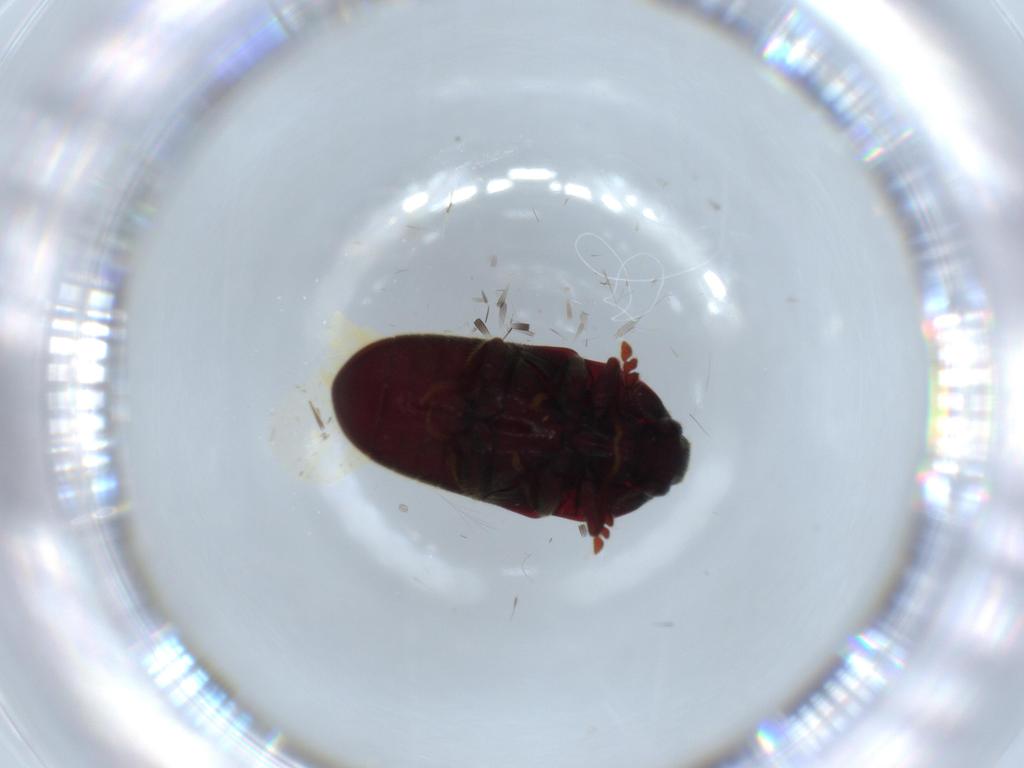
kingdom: Animalia
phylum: Arthropoda
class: Insecta
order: Coleoptera
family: Throscidae
